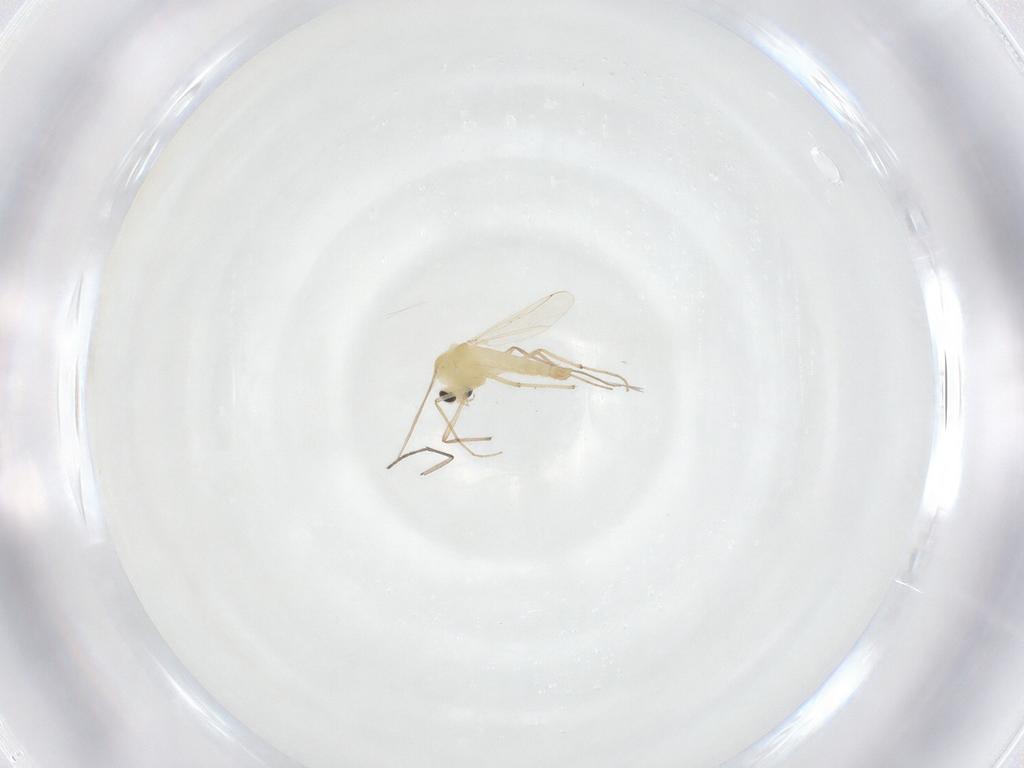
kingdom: Animalia
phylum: Arthropoda
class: Insecta
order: Diptera
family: Chironomidae
